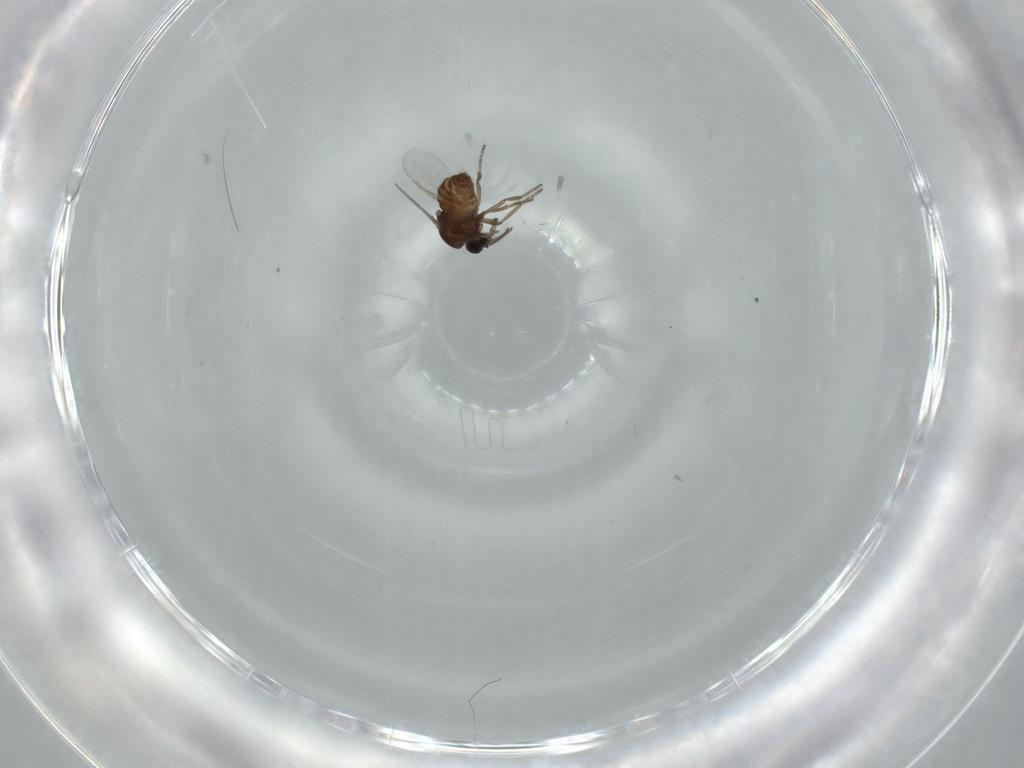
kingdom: Animalia
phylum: Arthropoda
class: Insecta
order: Diptera
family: Ceratopogonidae
